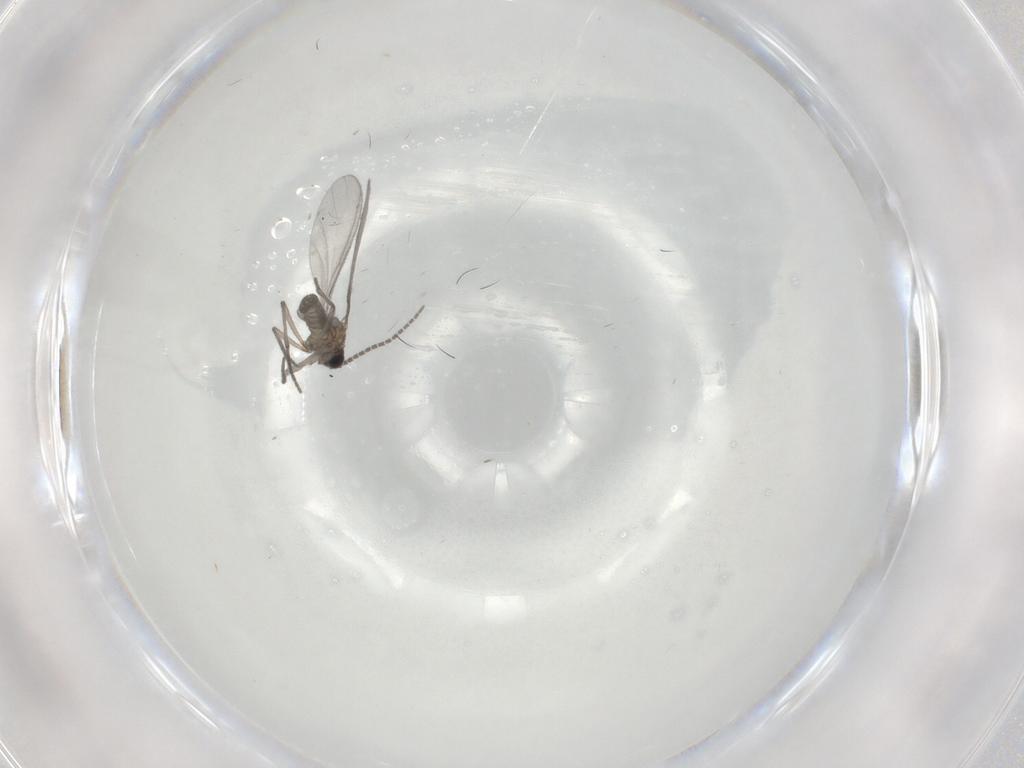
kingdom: Animalia
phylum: Arthropoda
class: Insecta
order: Diptera
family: Sciaridae
